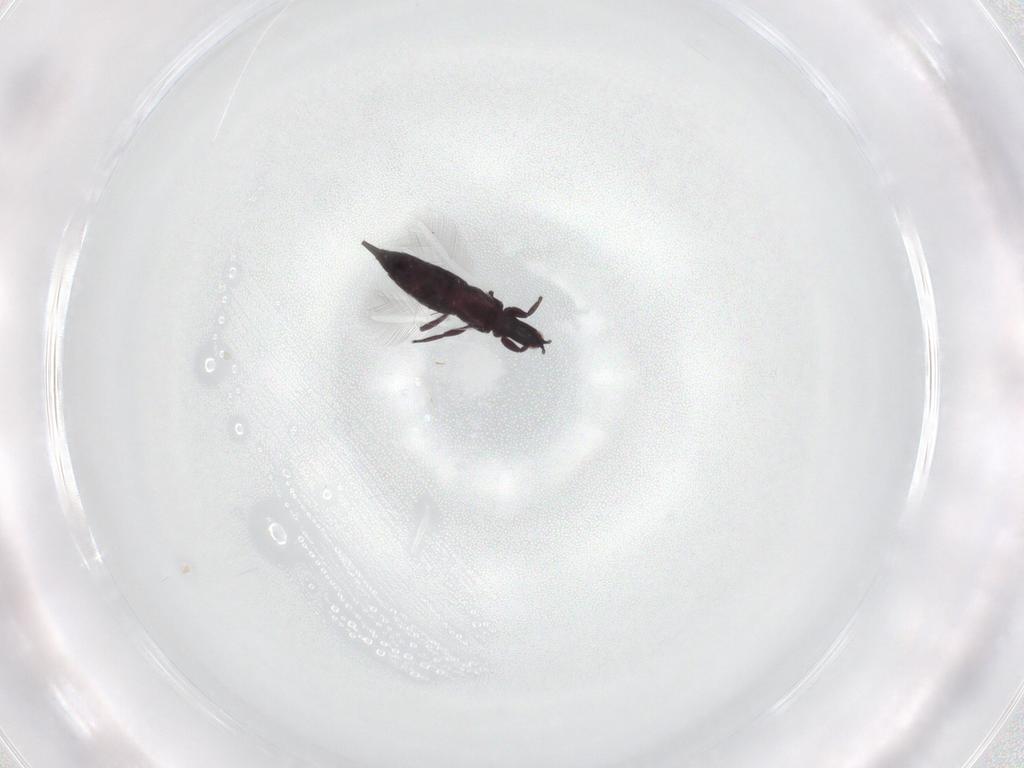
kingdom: Animalia
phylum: Arthropoda
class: Insecta
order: Thysanoptera
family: Phlaeothripidae
